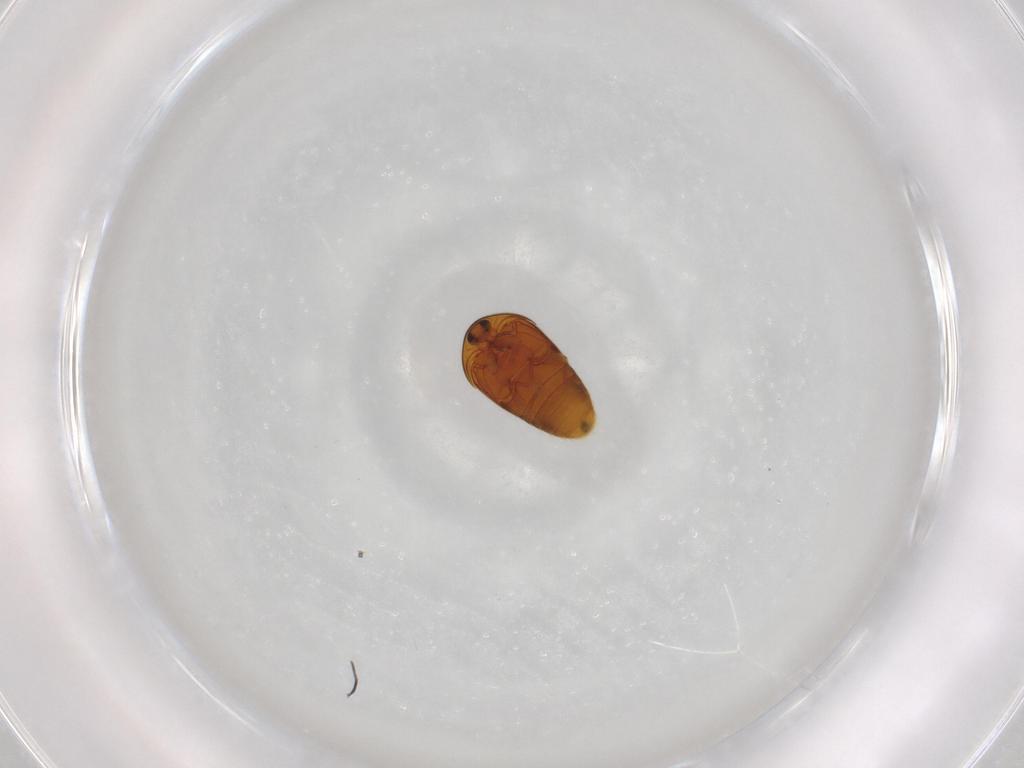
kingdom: Animalia
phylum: Arthropoda
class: Insecta
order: Coleoptera
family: Corylophidae
